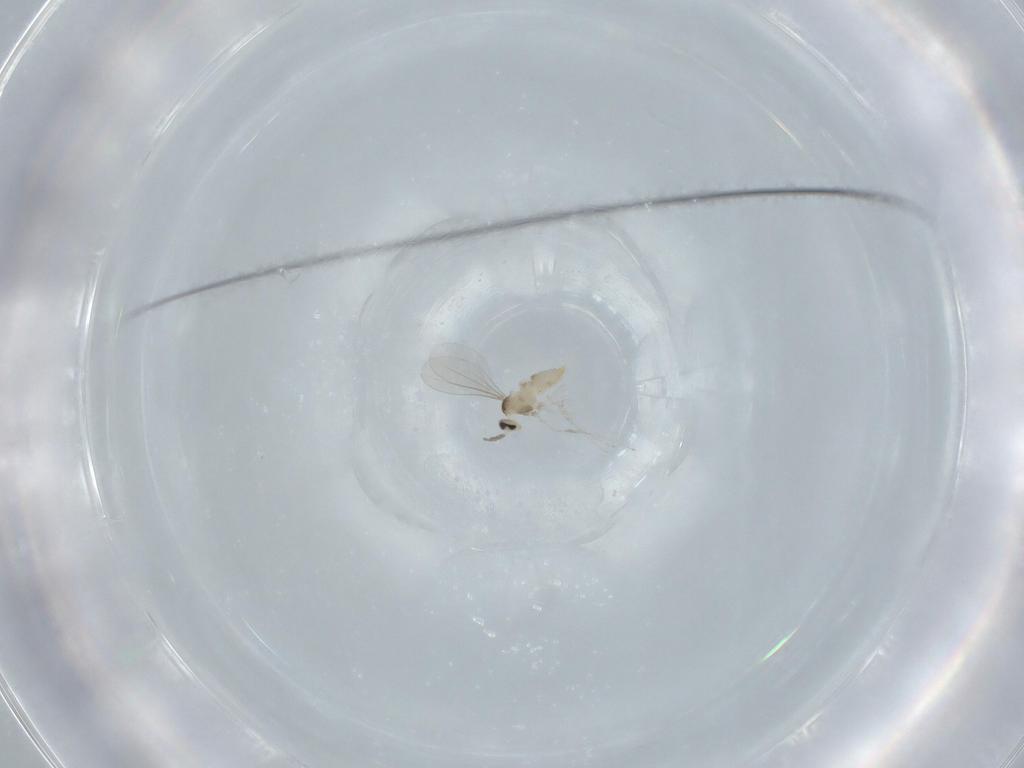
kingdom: Animalia
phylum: Arthropoda
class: Insecta
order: Diptera
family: Cecidomyiidae
